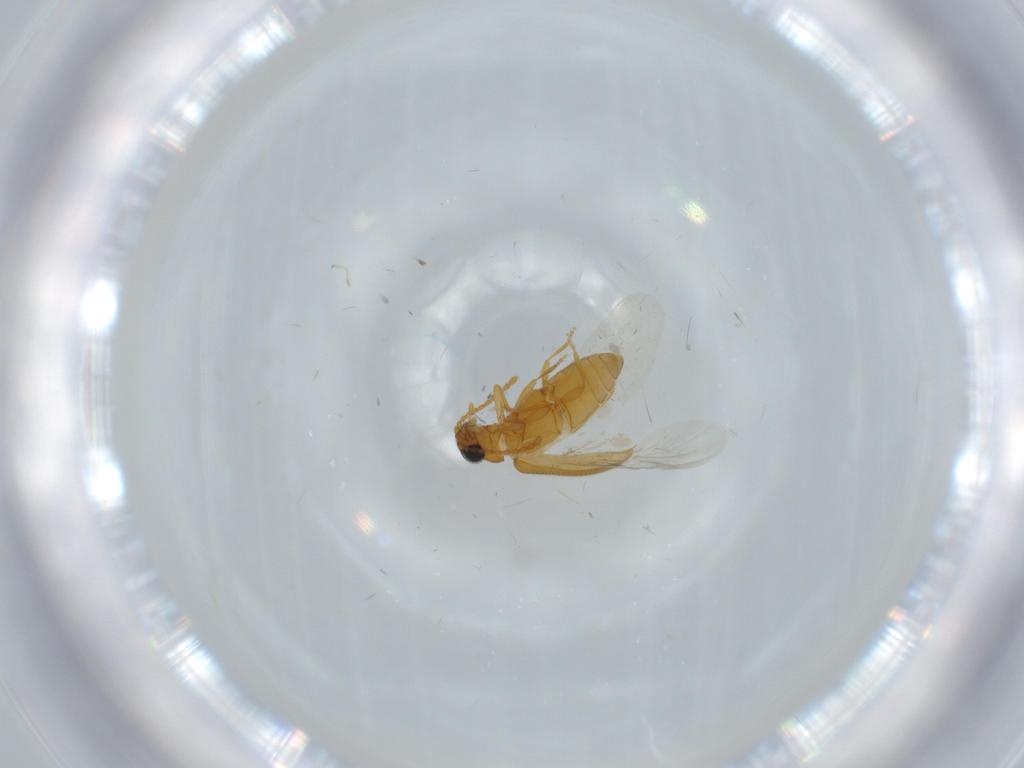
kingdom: Animalia
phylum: Arthropoda
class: Insecta
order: Coleoptera
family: Aderidae
